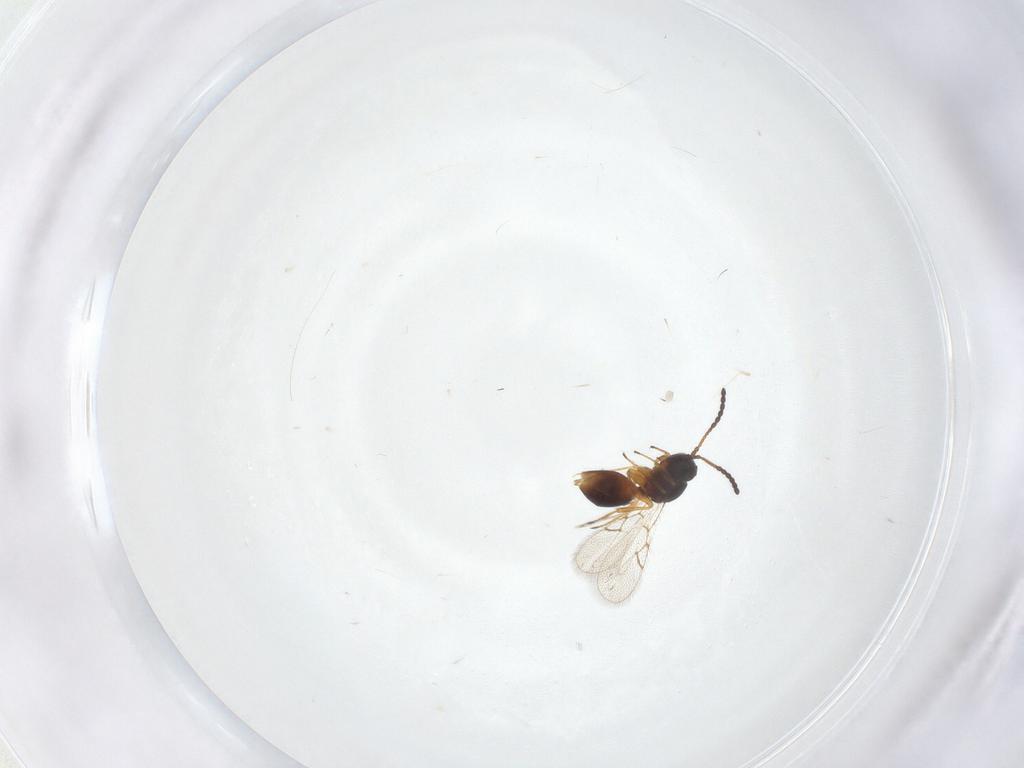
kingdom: Animalia
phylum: Arthropoda
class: Insecta
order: Hymenoptera
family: Figitidae
